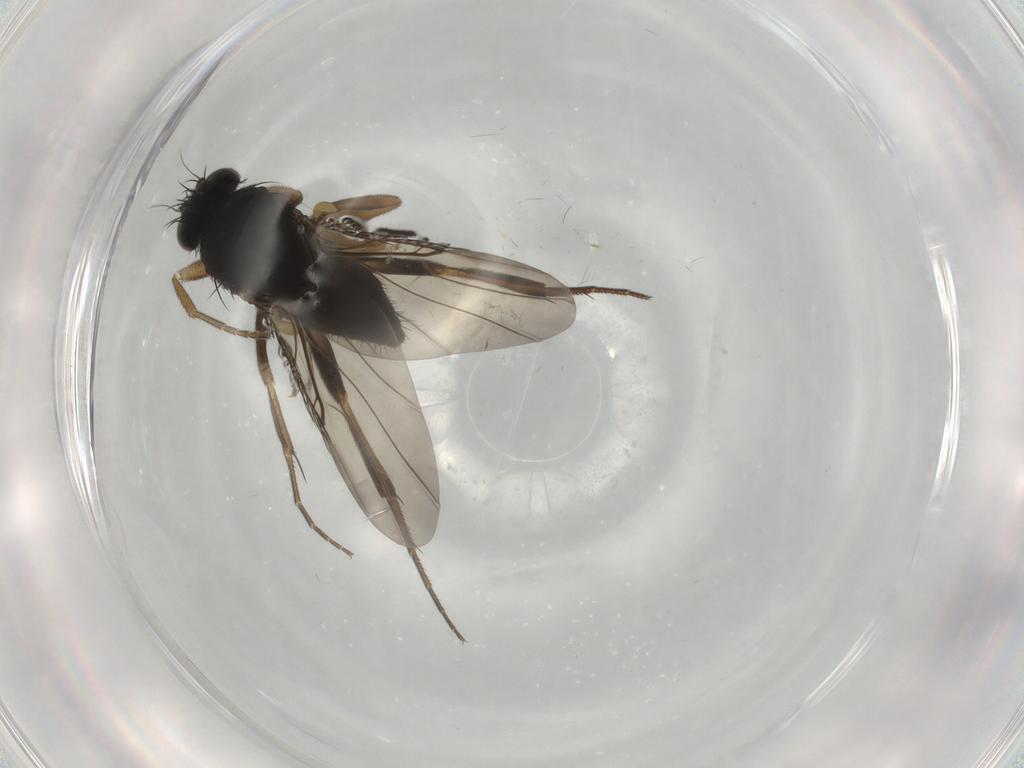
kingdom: Animalia
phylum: Arthropoda
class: Insecta
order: Diptera
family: Phoridae
